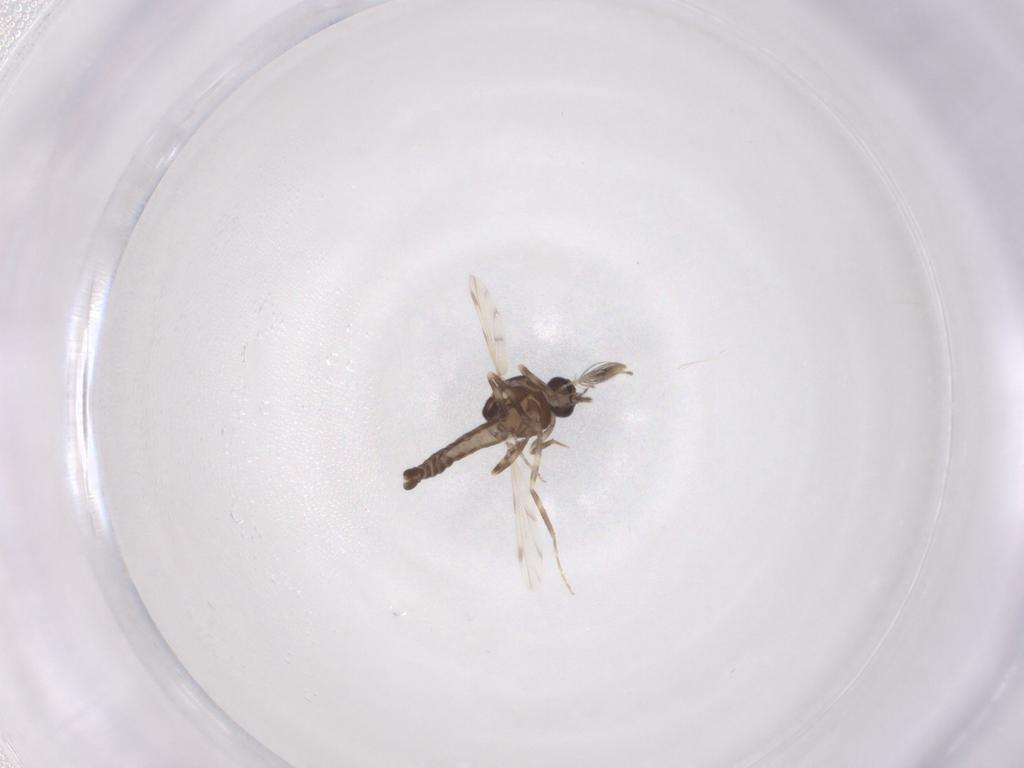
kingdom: Animalia
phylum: Arthropoda
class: Insecta
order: Diptera
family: Ceratopogonidae
